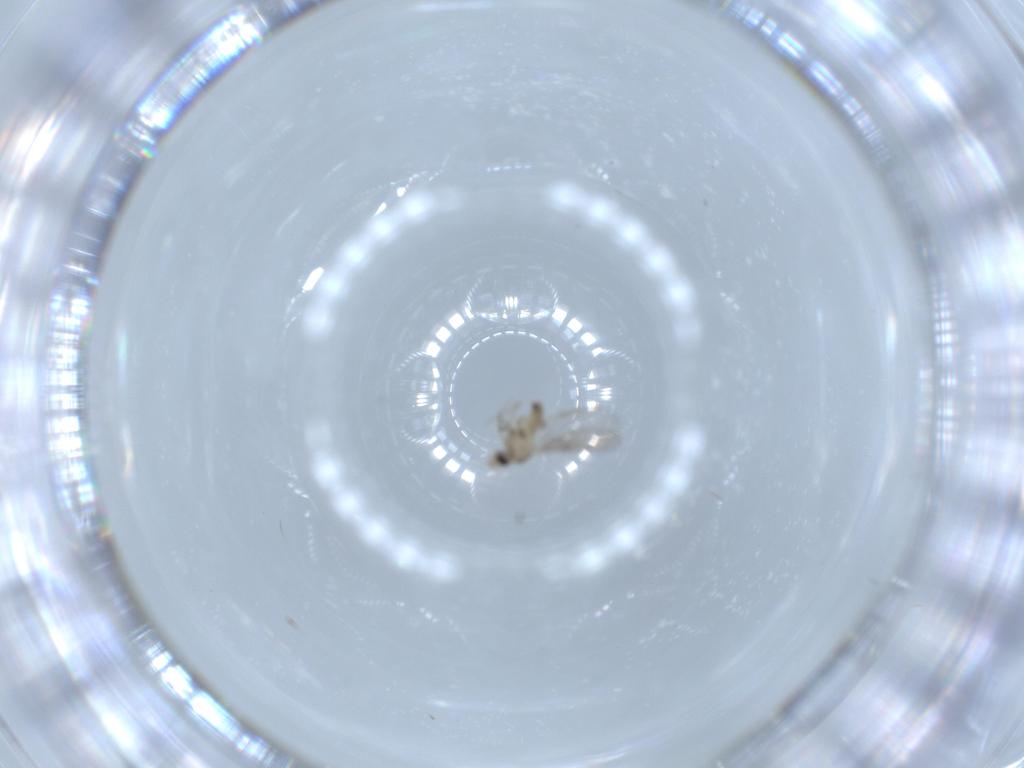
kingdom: Animalia
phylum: Arthropoda
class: Insecta
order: Diptera
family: Phoridae
